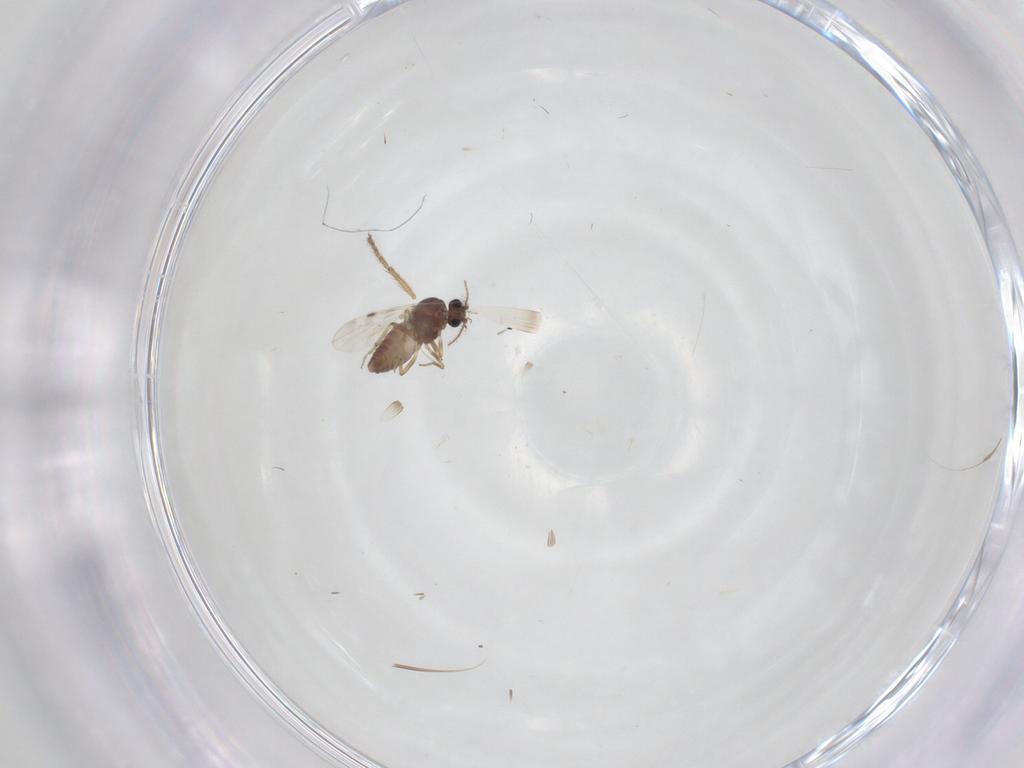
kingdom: Animalia
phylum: Arthropoda
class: Insecta
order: Diptera
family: Ceratopogonidae
